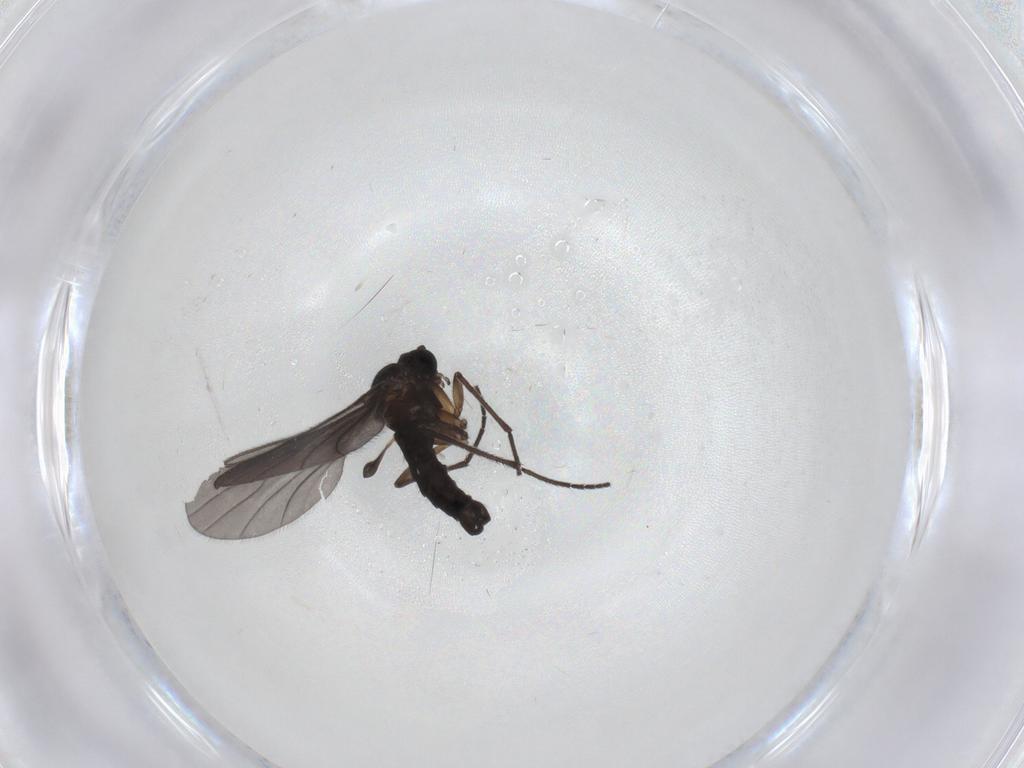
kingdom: Animalia
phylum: Arthropoda
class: Insecta
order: Diptera
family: Sciaridae
